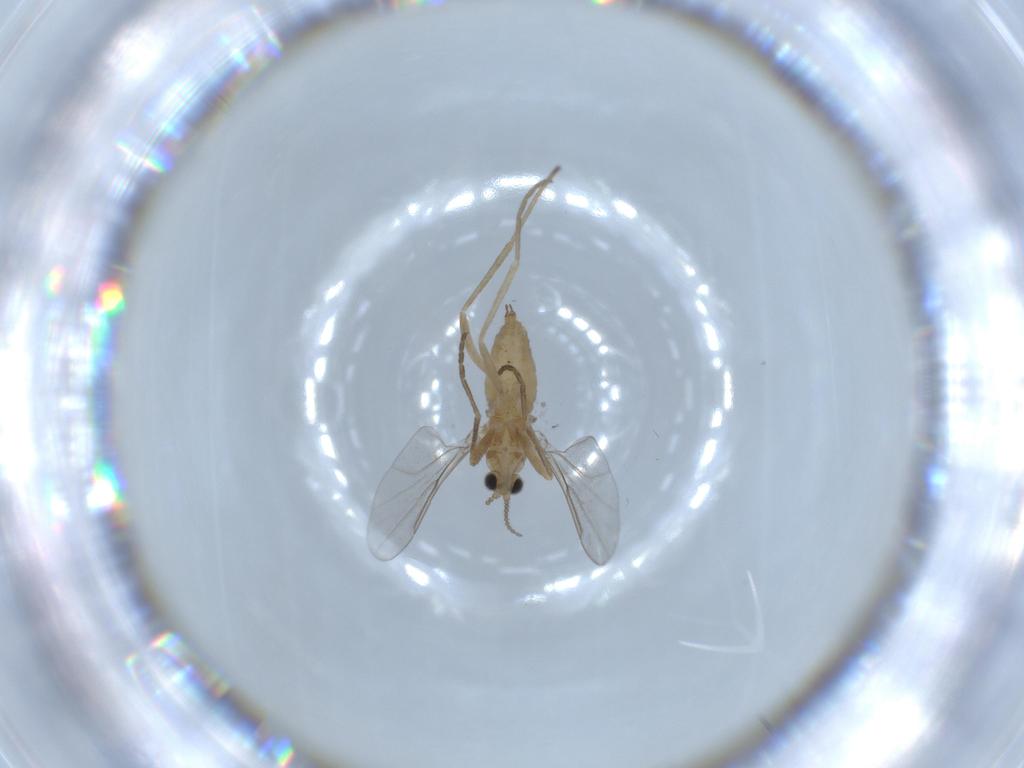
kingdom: Animalia
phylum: Arthropoda
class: Insecta
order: Diptera
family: Cecidomyiidae
